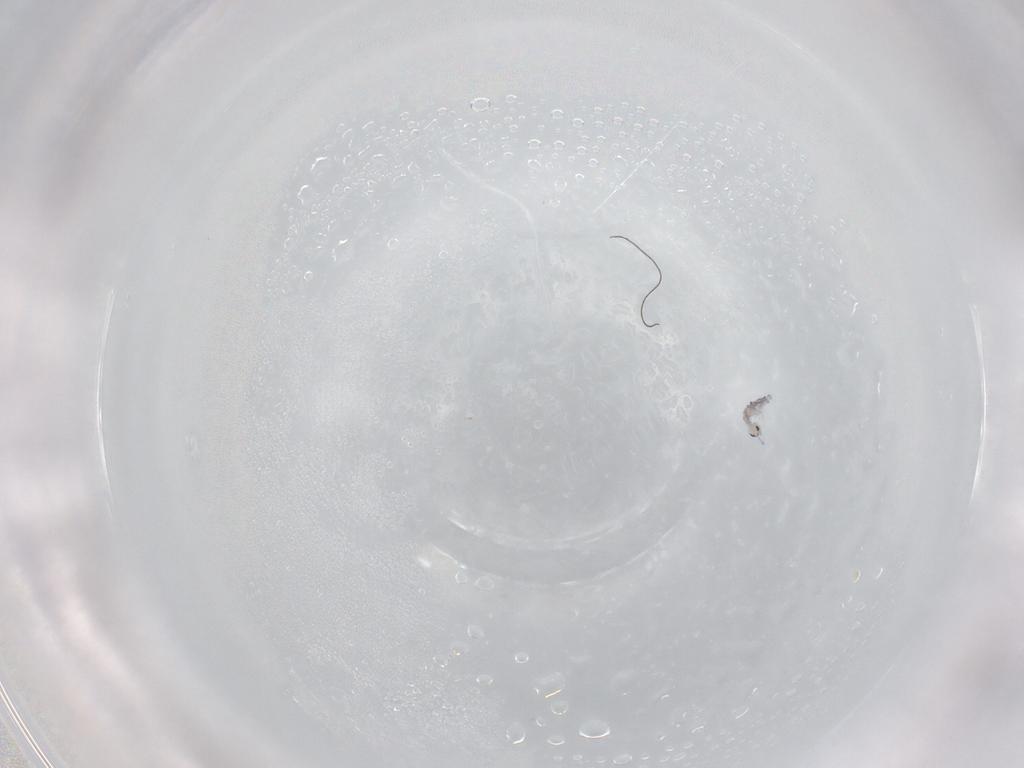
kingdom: Animalia
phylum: Arthropoda
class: Collembola
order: Entomobryomorpha
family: Entomobryidae
